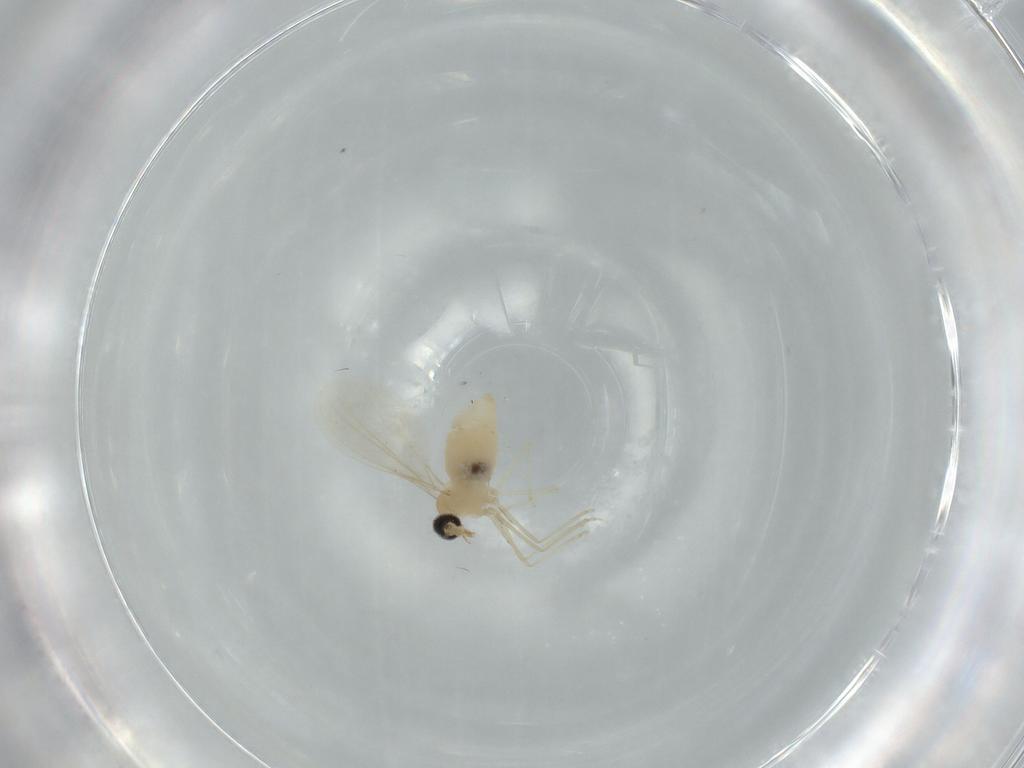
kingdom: Animalia
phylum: Arthropoda
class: Insecta
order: Diptera
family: Cecidomyiidae
